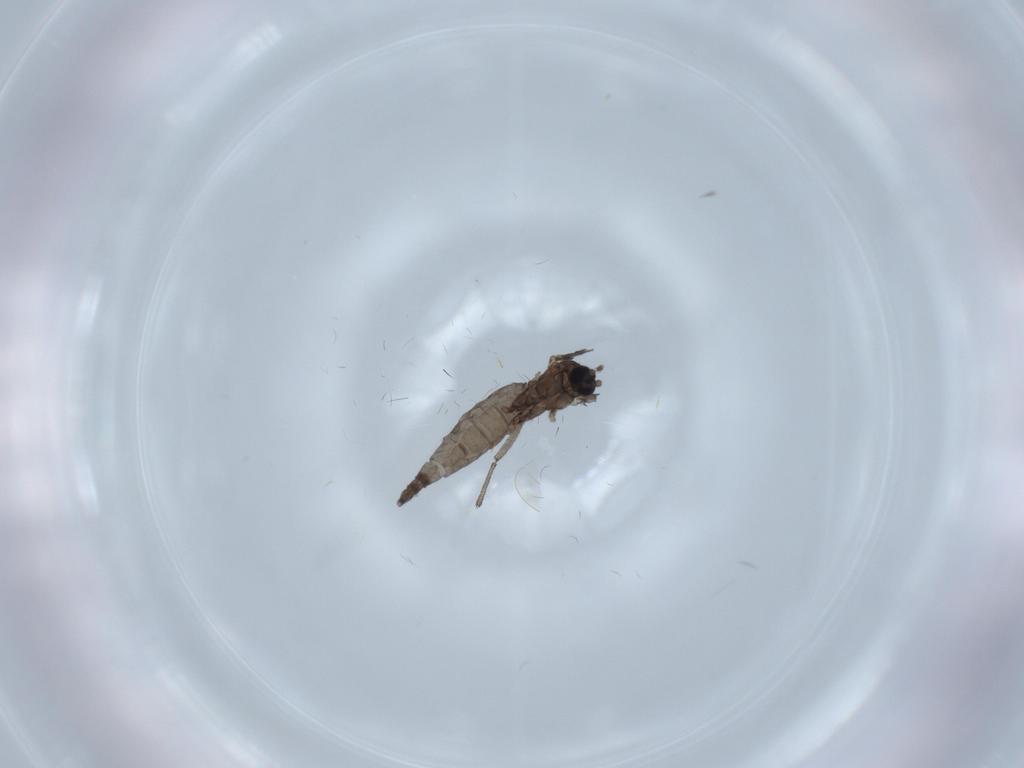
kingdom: Animalia
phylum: Arthropoda
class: Insecta
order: Diptera
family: Sciaridae
